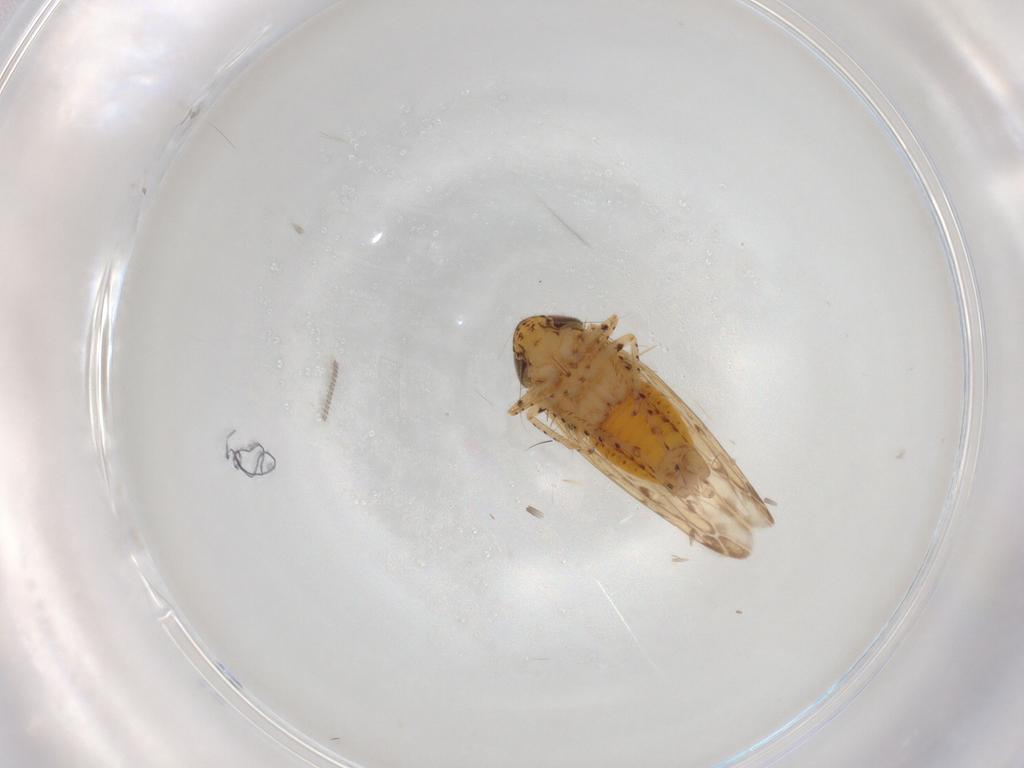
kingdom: Animalia
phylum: Arthropoda
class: Insecta
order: Hemiptera
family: Cicadellidae
